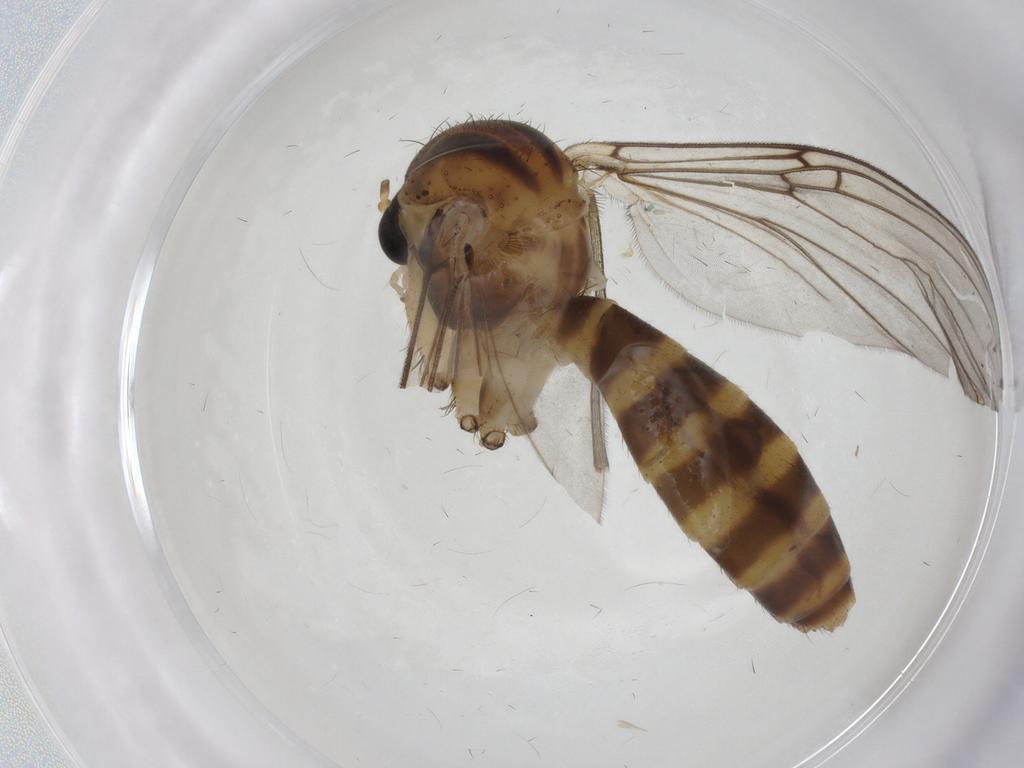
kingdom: Animalia
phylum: Arthropoda
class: Insecta
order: Diptera
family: Mycetophilidae
